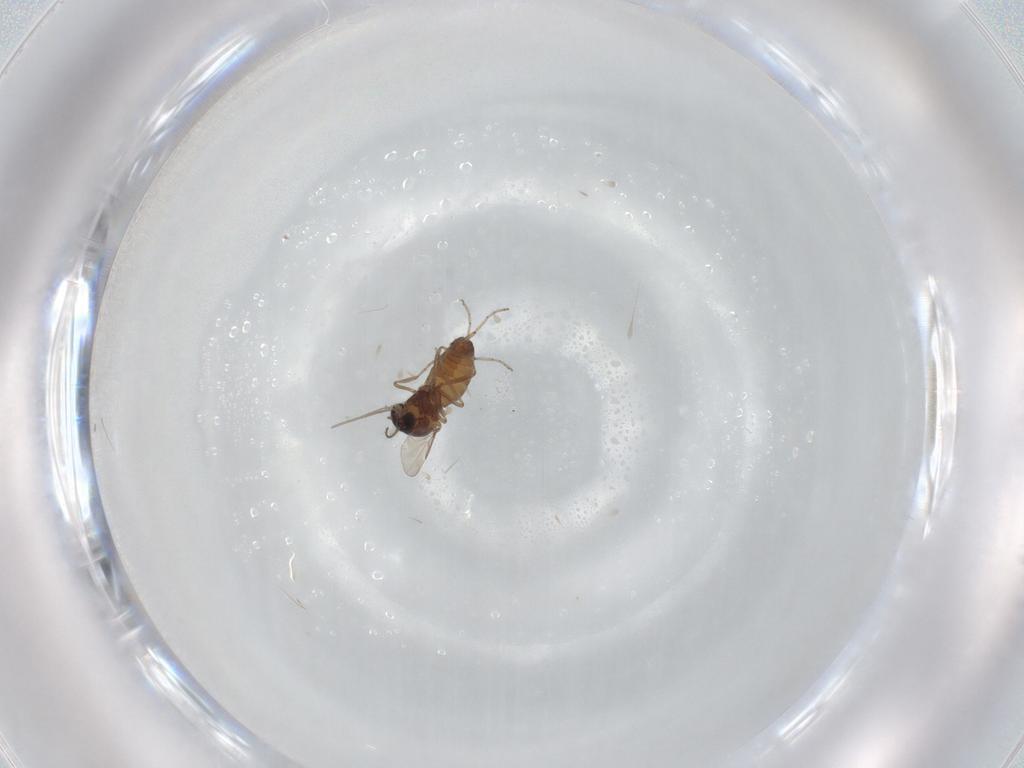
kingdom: Animalia
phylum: Arthropoda
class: Insecta
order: Diptera
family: Ceratopogonidae
